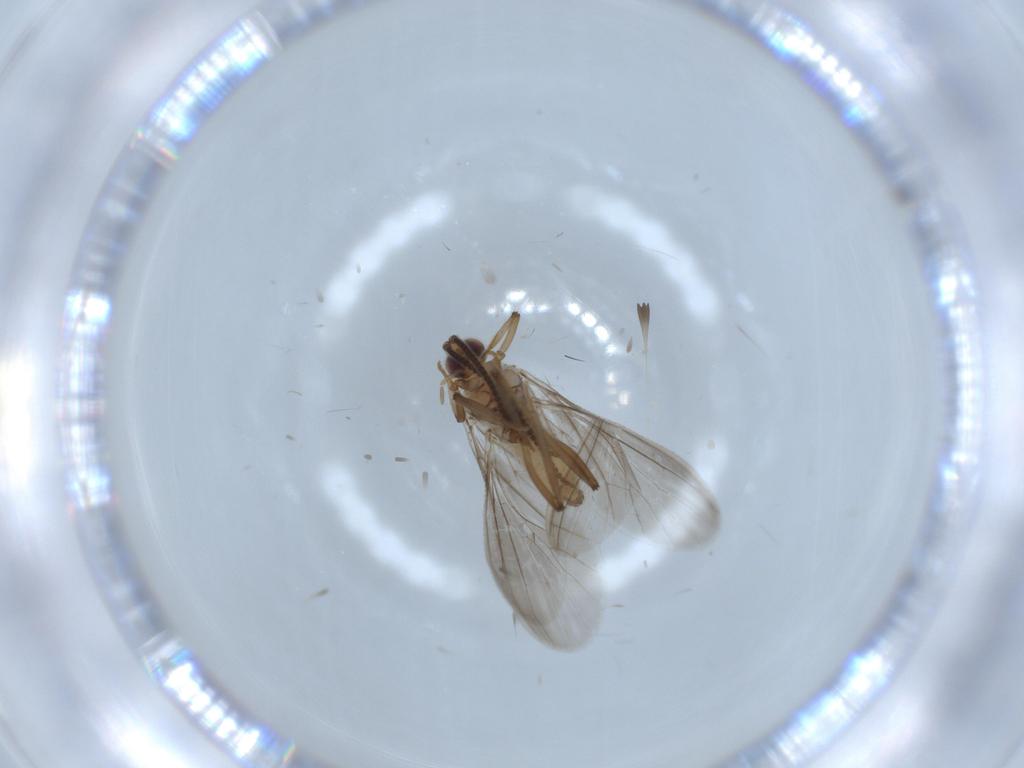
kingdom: Animalia
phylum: Arthropoda
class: Insecta
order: Neuroptera
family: Coniopterygidae
